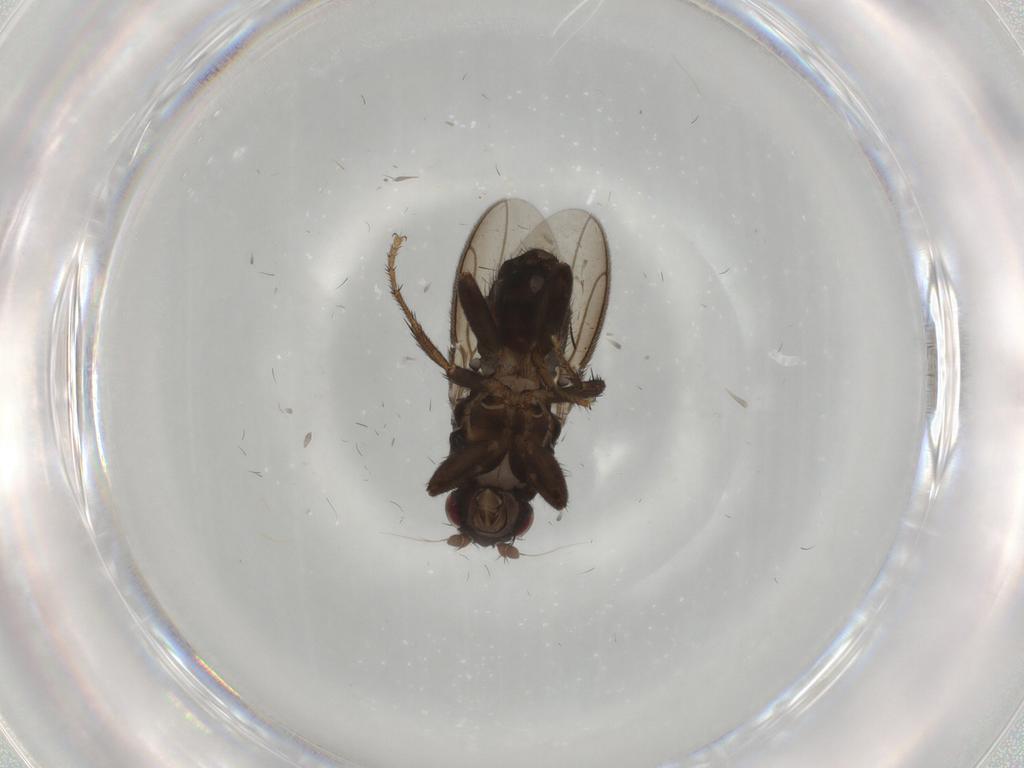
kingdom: Animalia
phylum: Arthropoda
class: Insecta
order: Diptera
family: Sphaeroceridae
